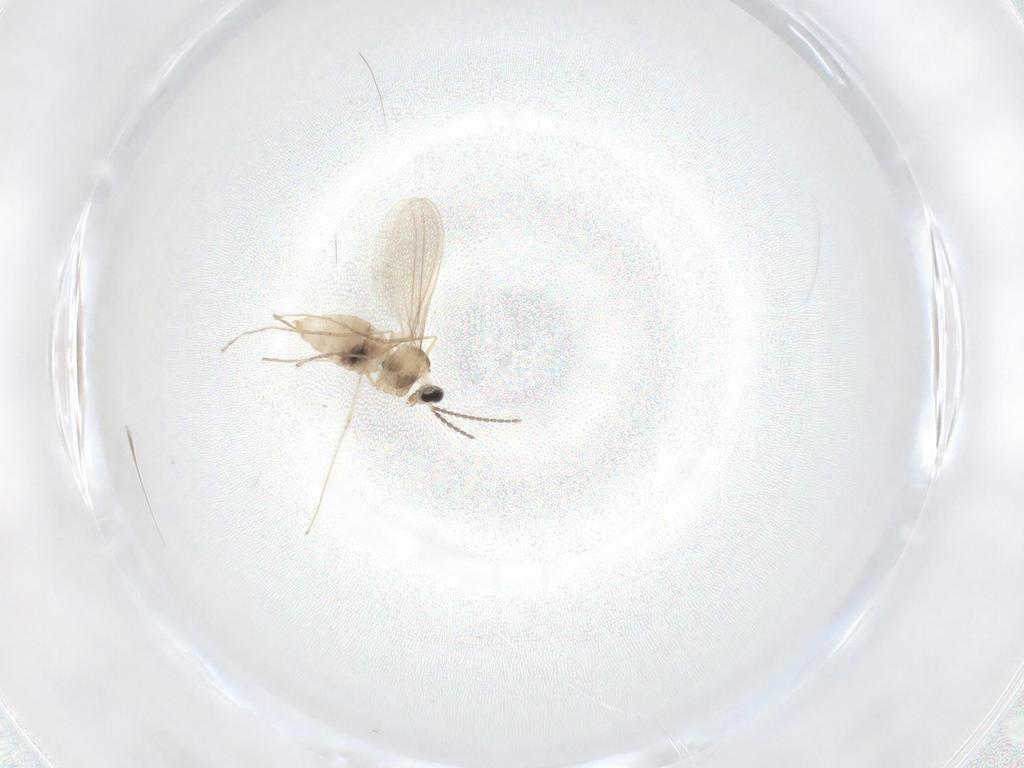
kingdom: Animalia
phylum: Arthropoda
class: Insecta
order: Diptera
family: Cecidomyiidae
